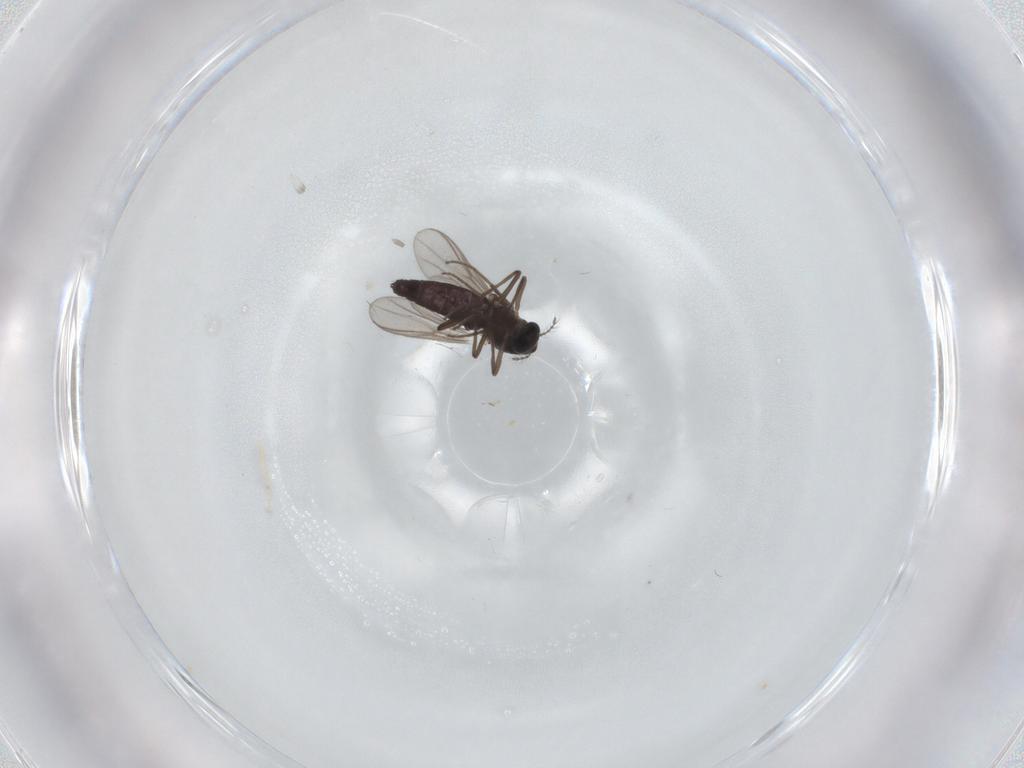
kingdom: Animalia
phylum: Arthropoda
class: Insecta
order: Diptera
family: Chironomidae
